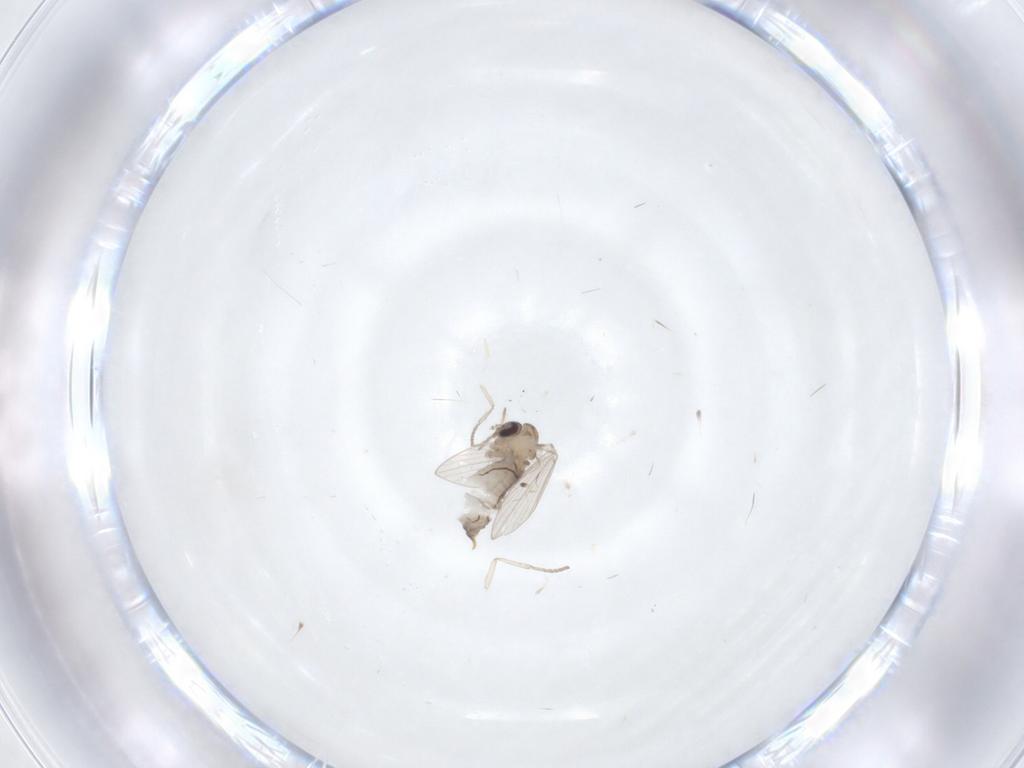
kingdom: Animalia
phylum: Arthropoda
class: Insecta
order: Diptera
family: Psychodidae
